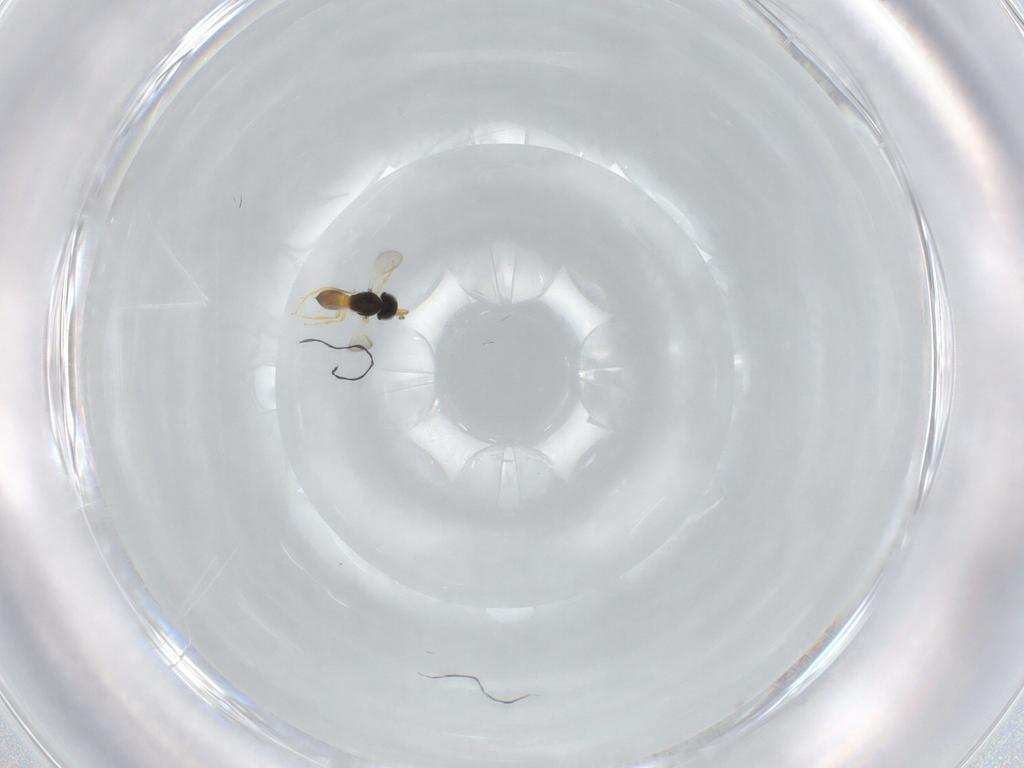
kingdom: Animalia
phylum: Arthropoda
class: Insecta
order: Hymenoptera
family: Scelionidae
